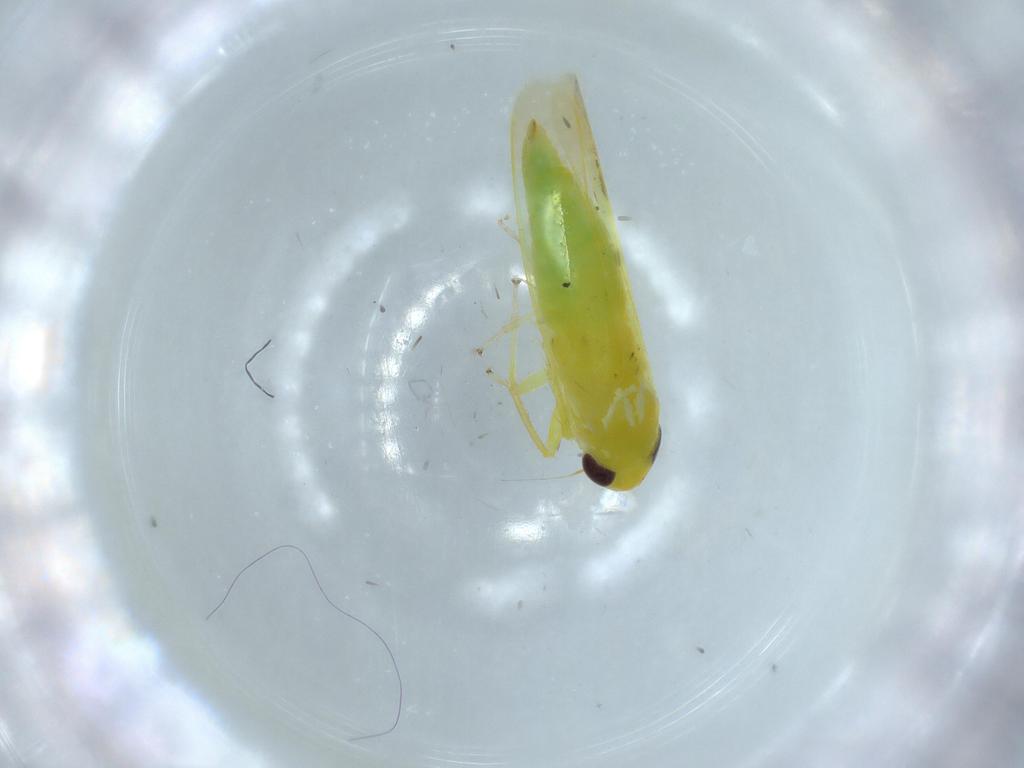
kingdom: Animalia
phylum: Arthropoda
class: Insecta
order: Hemiptera
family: Cicadellidae
